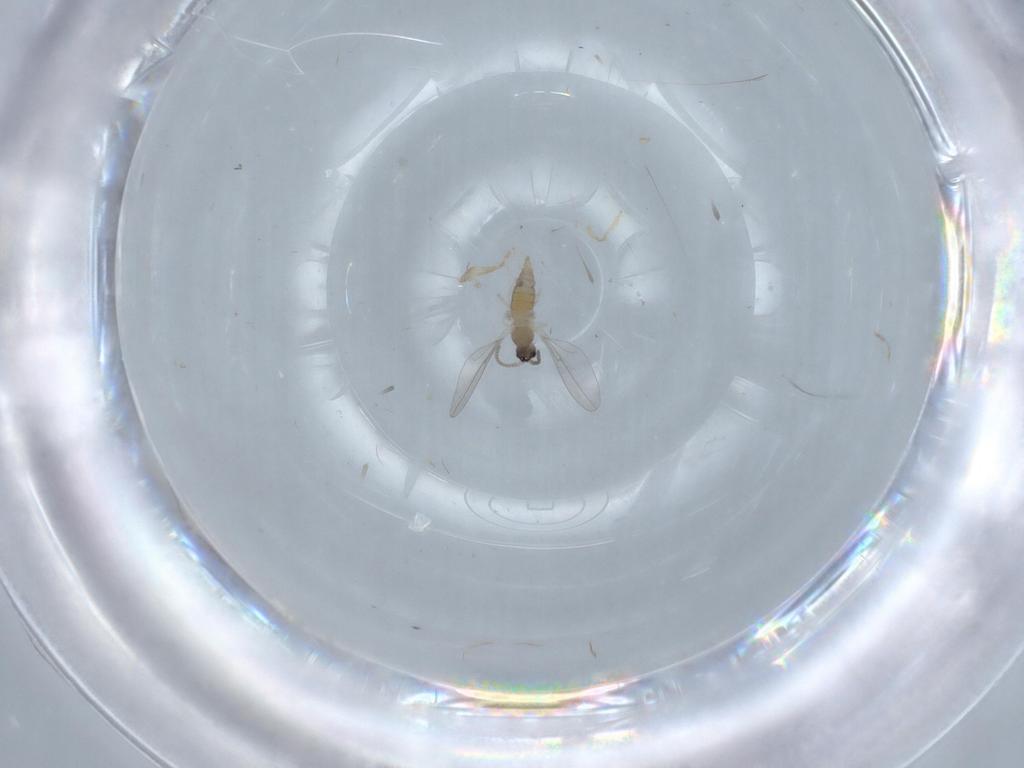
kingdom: Animalia
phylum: Arthropoda
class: Insecta
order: Diptera
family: Cecidomyiidae
